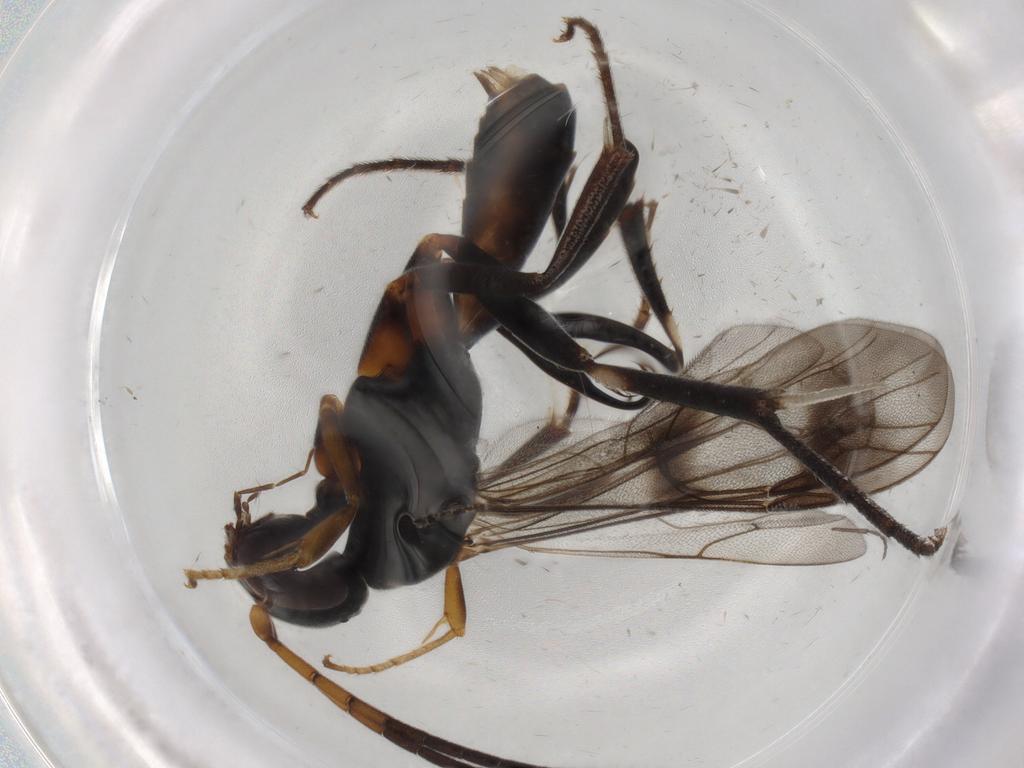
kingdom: Animalia
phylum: Arthropoda
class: Insecta
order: Hymenoptera
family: Pompilidae
